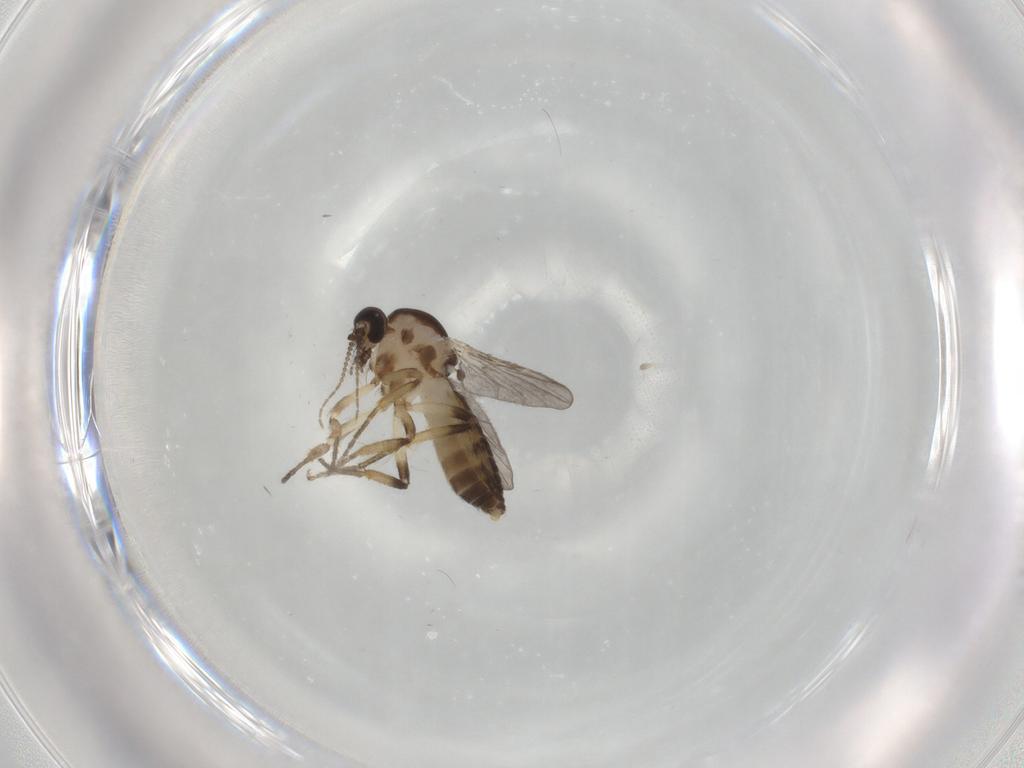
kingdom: Animalia
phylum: Arthropoda
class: Insecta
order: Diptera
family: Ceratopogonidae
